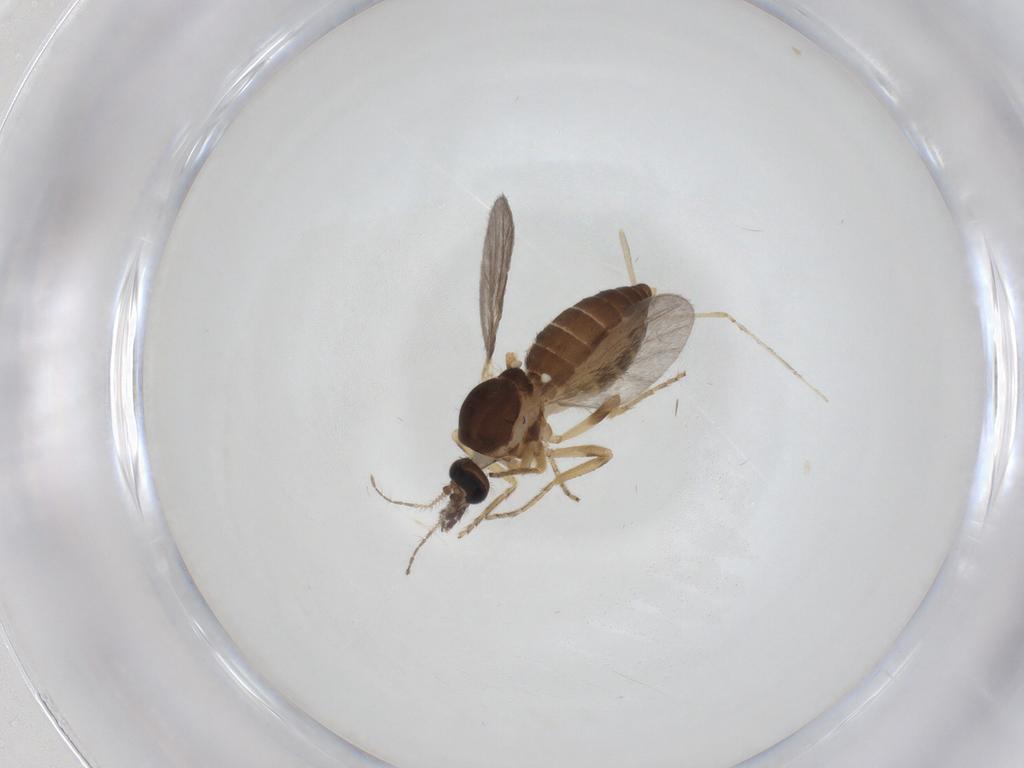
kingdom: Animalia
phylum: Arthropoda
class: Insecta
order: Diptera
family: Ceratopogonidae
